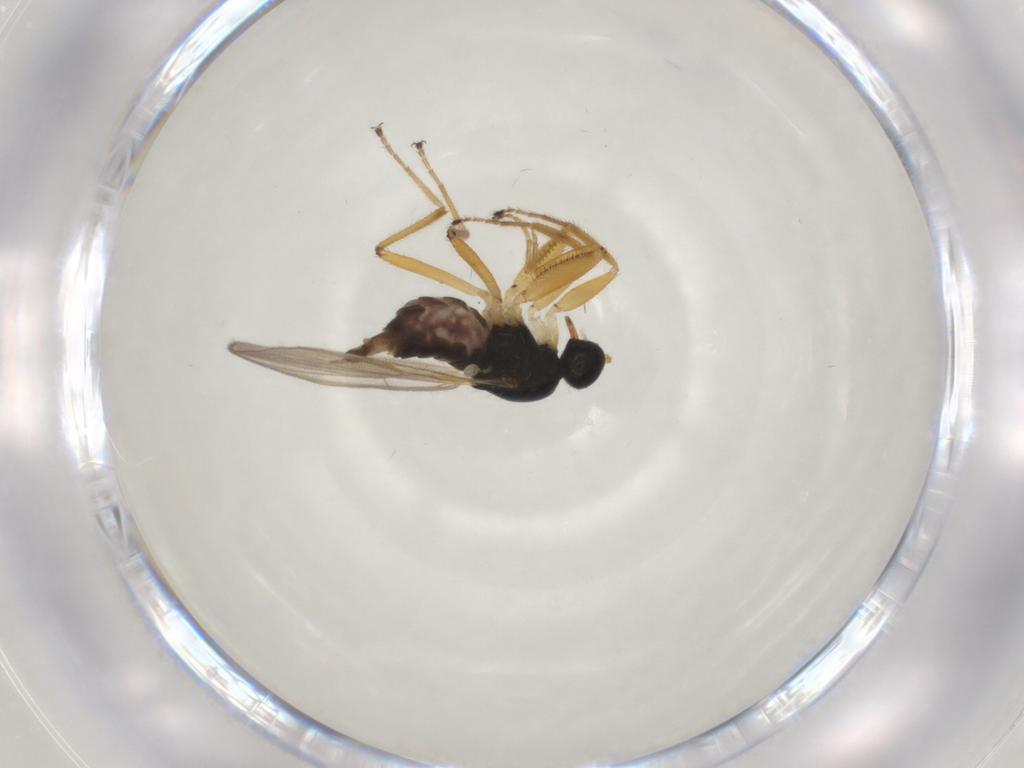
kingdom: Animalia
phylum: Arthropoda
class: Insecta
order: Diptera
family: Hybotidae
